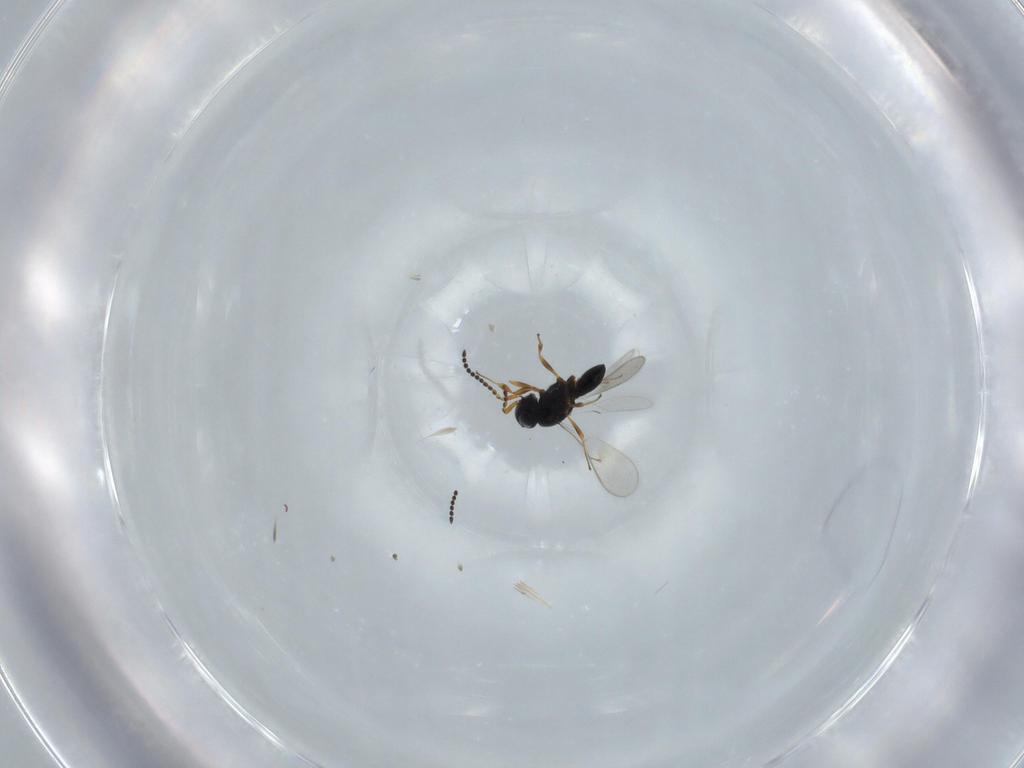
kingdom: Animalia
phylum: Arthropoda
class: Insecta
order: Hymenoptera
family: Scelionidae
